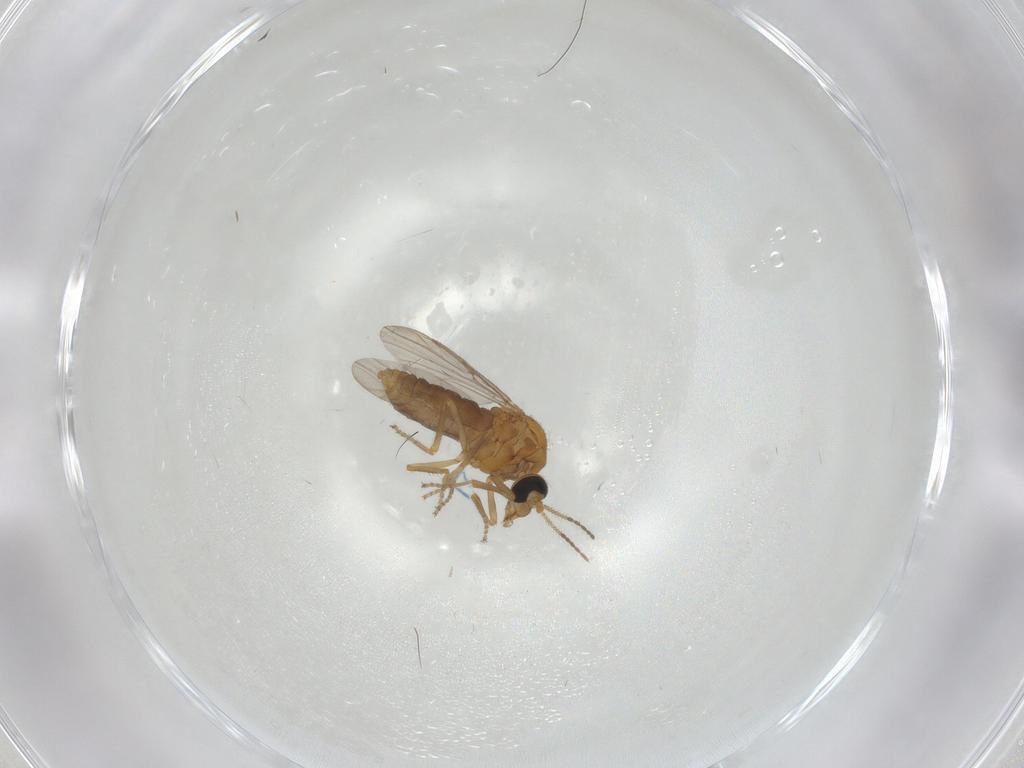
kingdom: Animalia
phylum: Arthropoda
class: Insecta
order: Diptera
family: Ceratopogonidae
